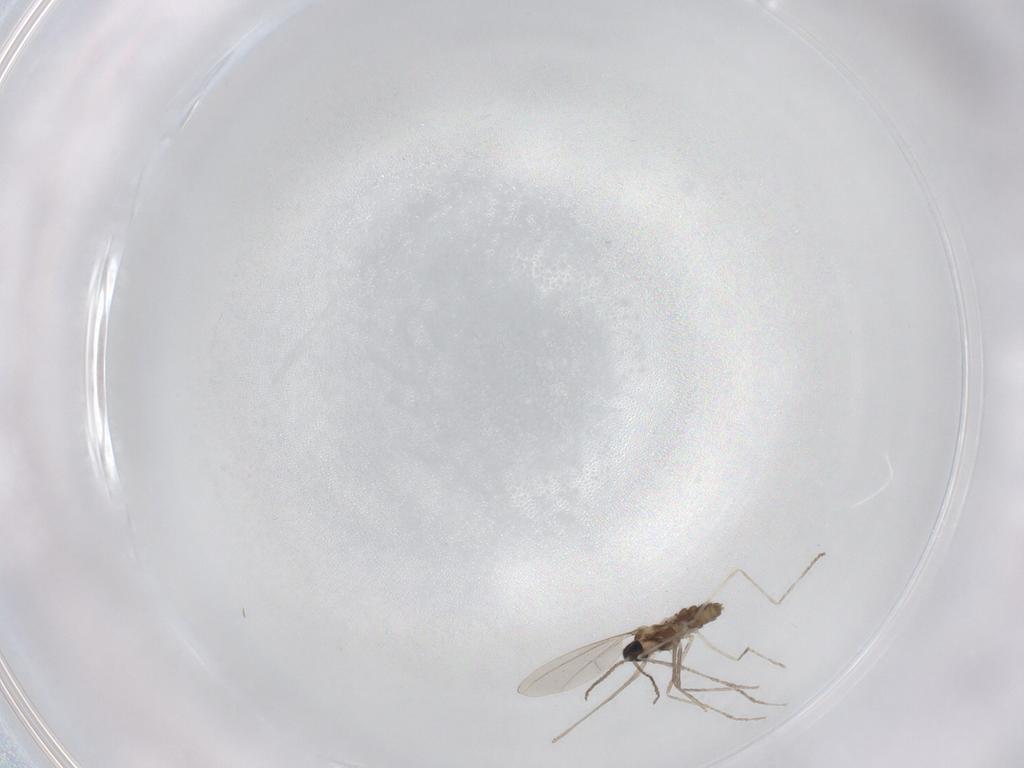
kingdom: Animalia
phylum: Arthropoda
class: Insecta
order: Diptera
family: Cecidomyiidae
